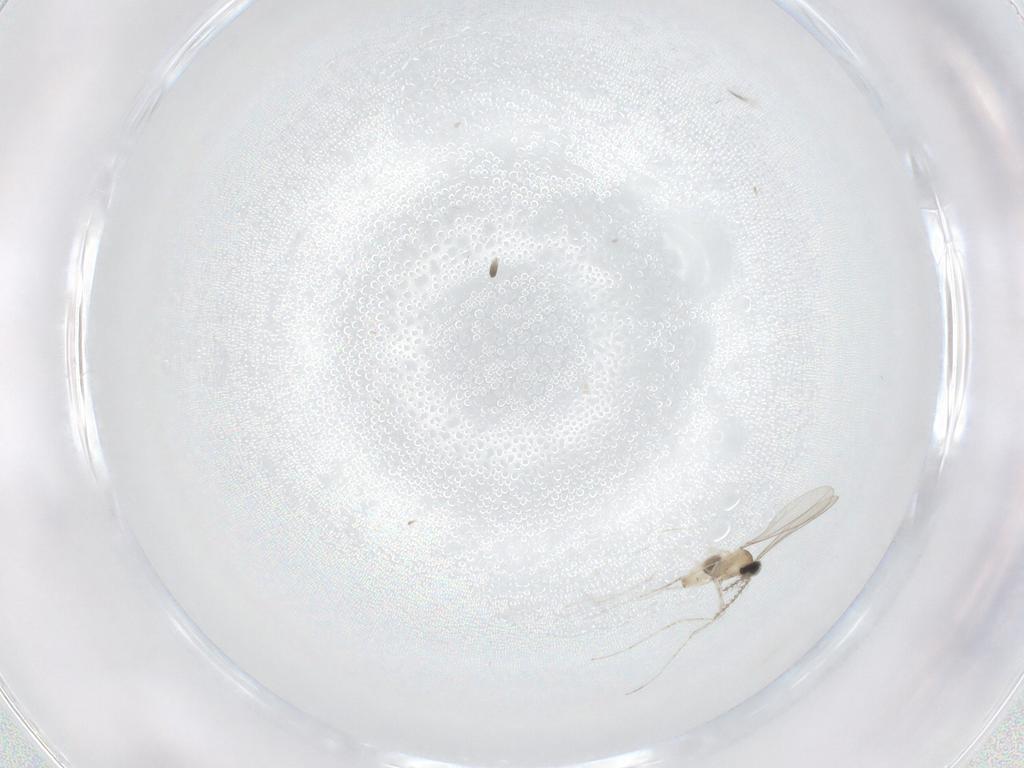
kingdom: Animalia
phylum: Arthropoda
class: Insecta
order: Diptera
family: Cecidomyiidae
